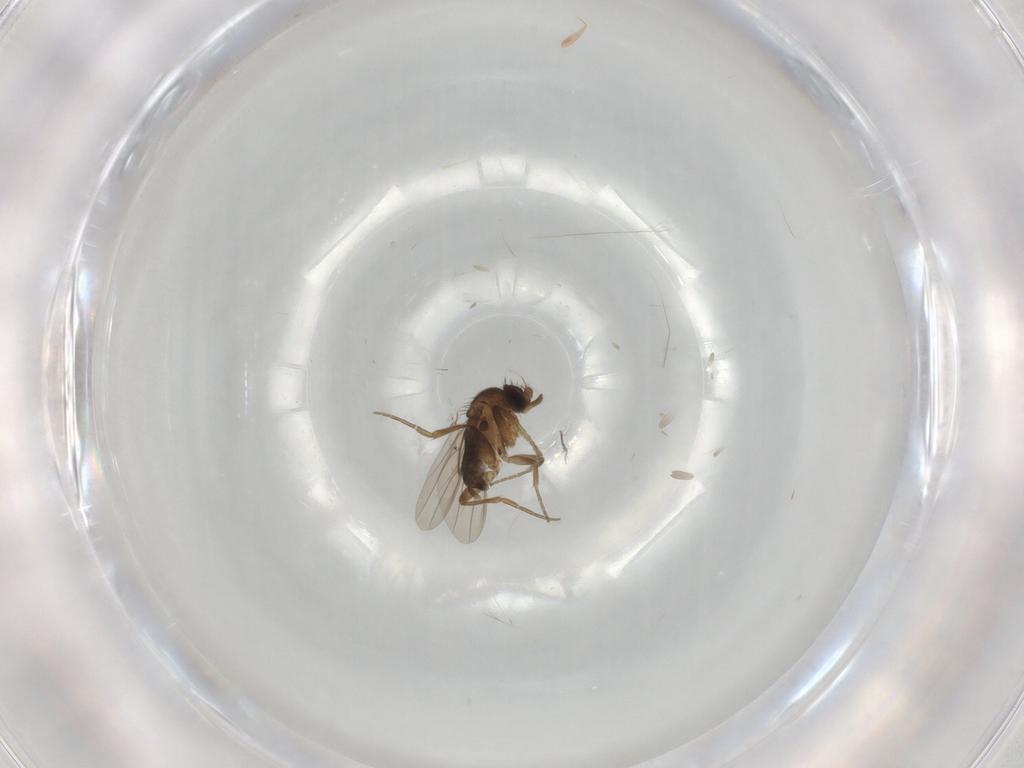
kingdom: Animalia
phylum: Arthropoda
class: Insecta
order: Diptera
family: Phoridae
